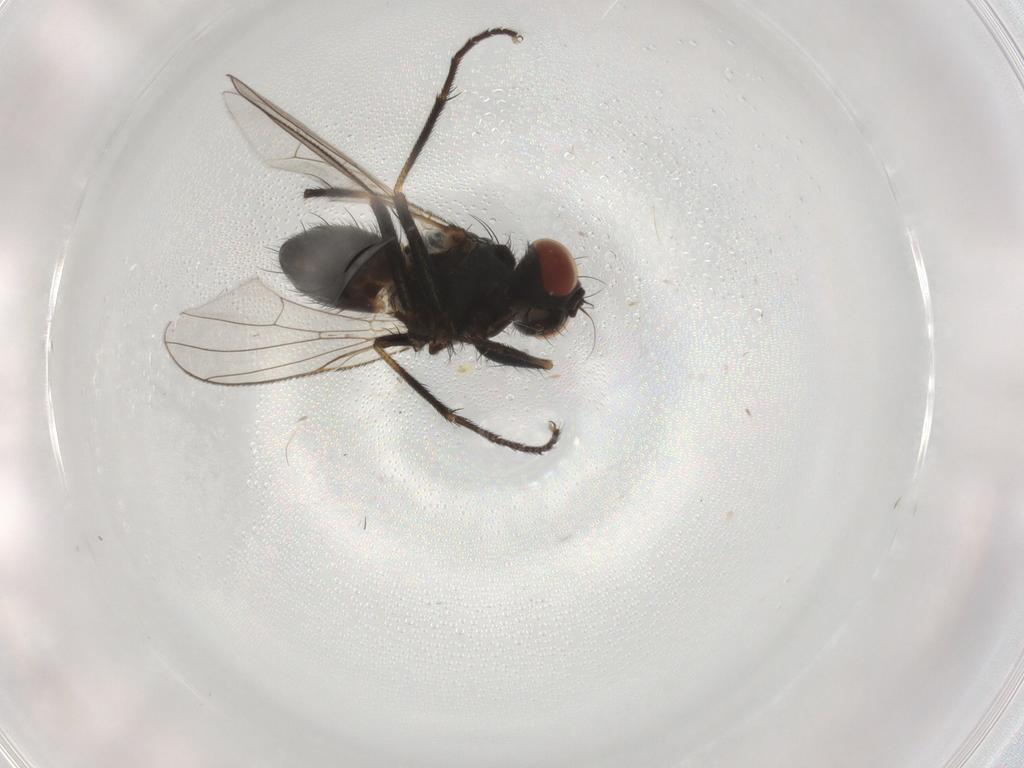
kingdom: Animalia
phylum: Arthropoda
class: Insecta
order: Diptera
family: Muscidae
